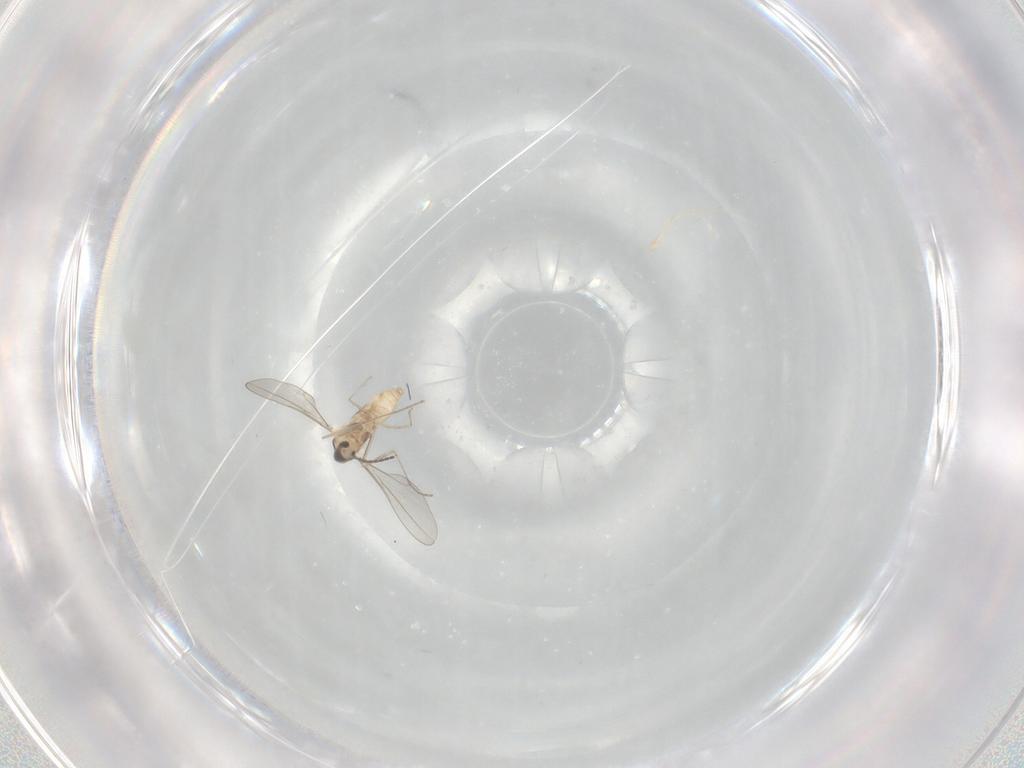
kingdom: Animalia
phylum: Arthropoda
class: Insecta
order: Diptera
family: Cecidomyiidae
